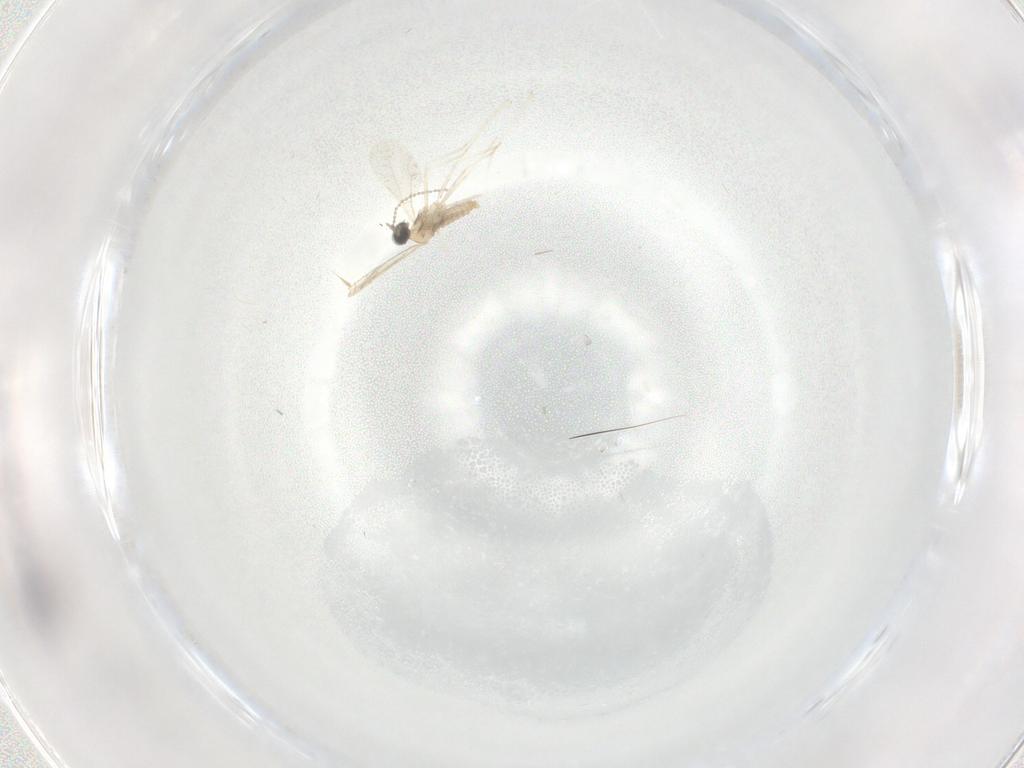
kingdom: Animalia
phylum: Arthropoda
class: Insecta
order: Diptera
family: Cecidomyiidae
